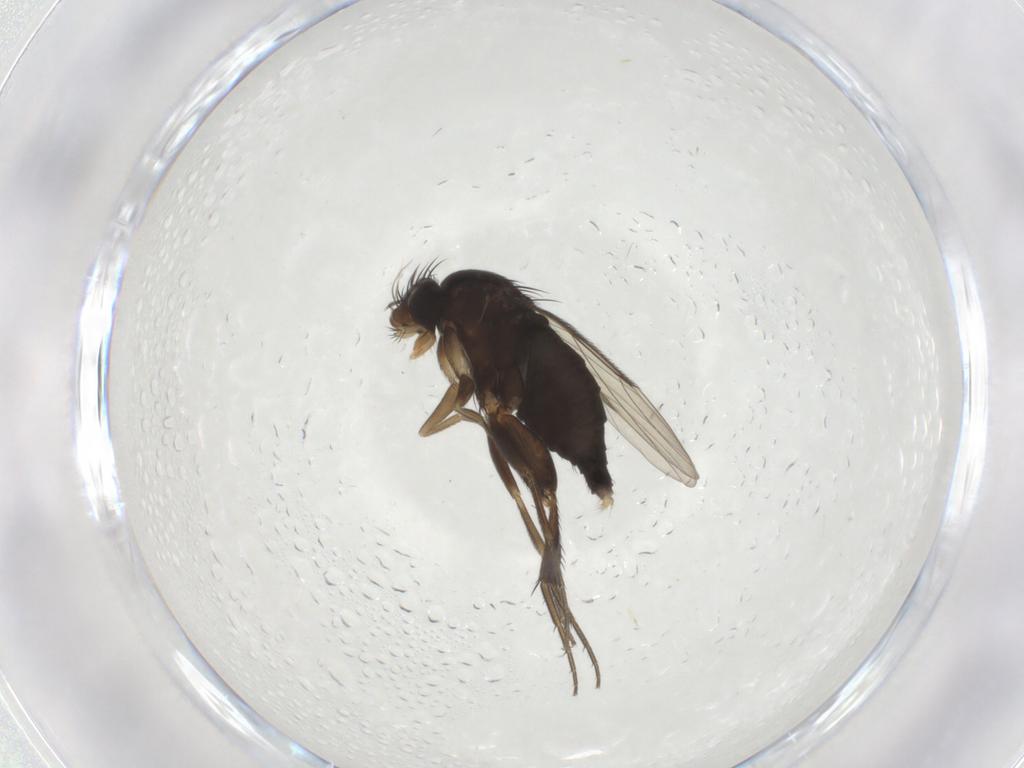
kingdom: Animalia
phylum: Arthropoda
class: Insecta
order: Diptera
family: Phoridae
